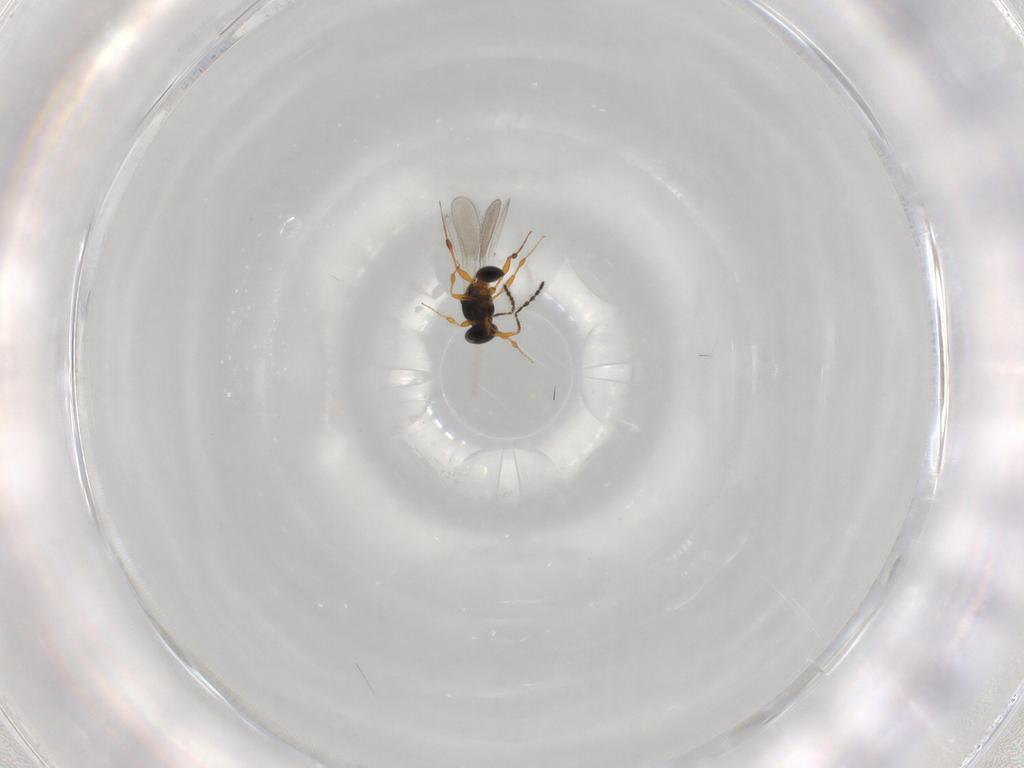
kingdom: Animalia
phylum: Arthropoda
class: Insecta
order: Hymenoptera
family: Platygastridae
